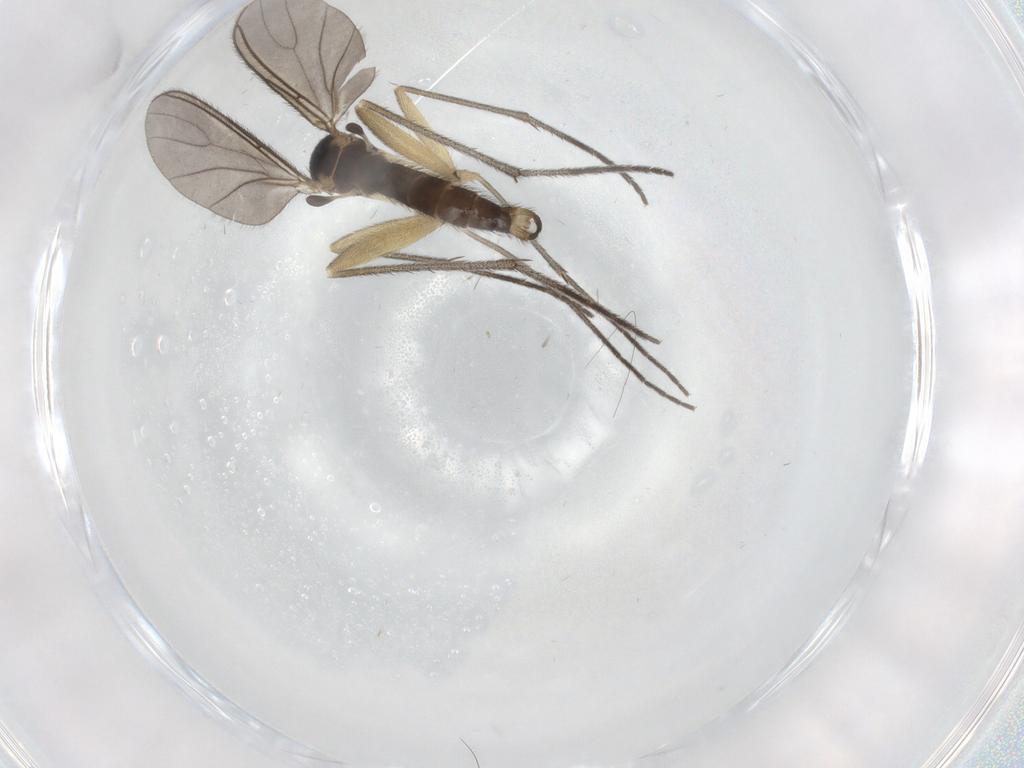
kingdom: Animalia
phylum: Arthropoda
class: Insecta
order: Diptera
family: Sciaridae
